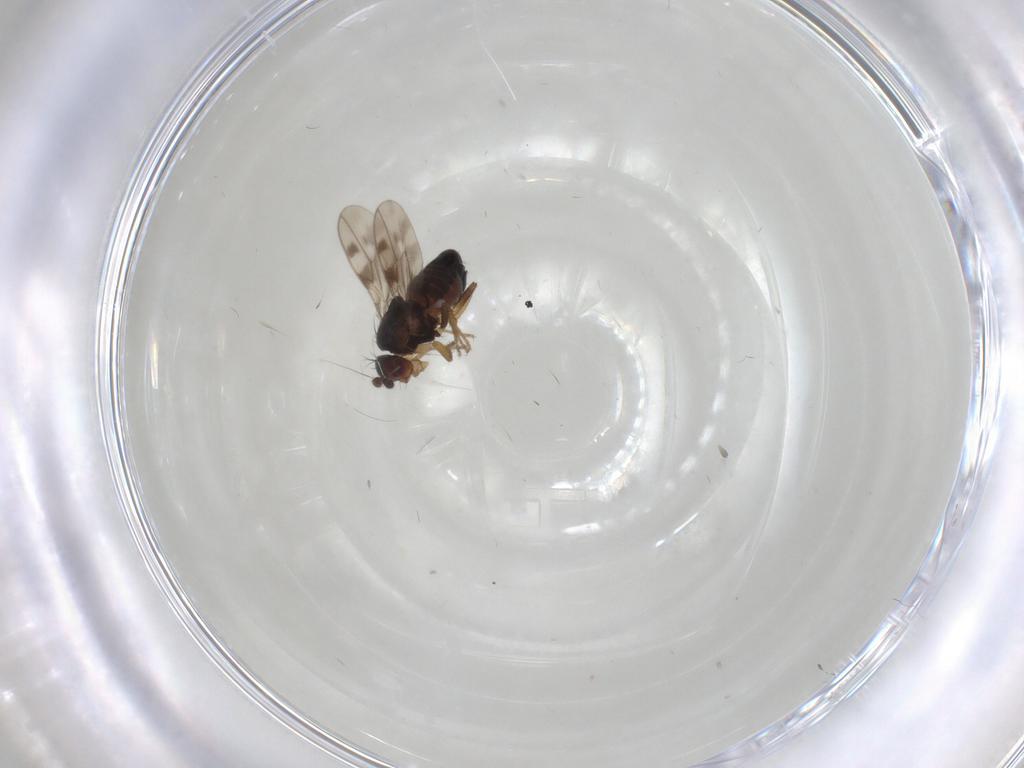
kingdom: Animalia
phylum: Arthropoda
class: Insecta
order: Diptera
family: Sphaeroceridae
